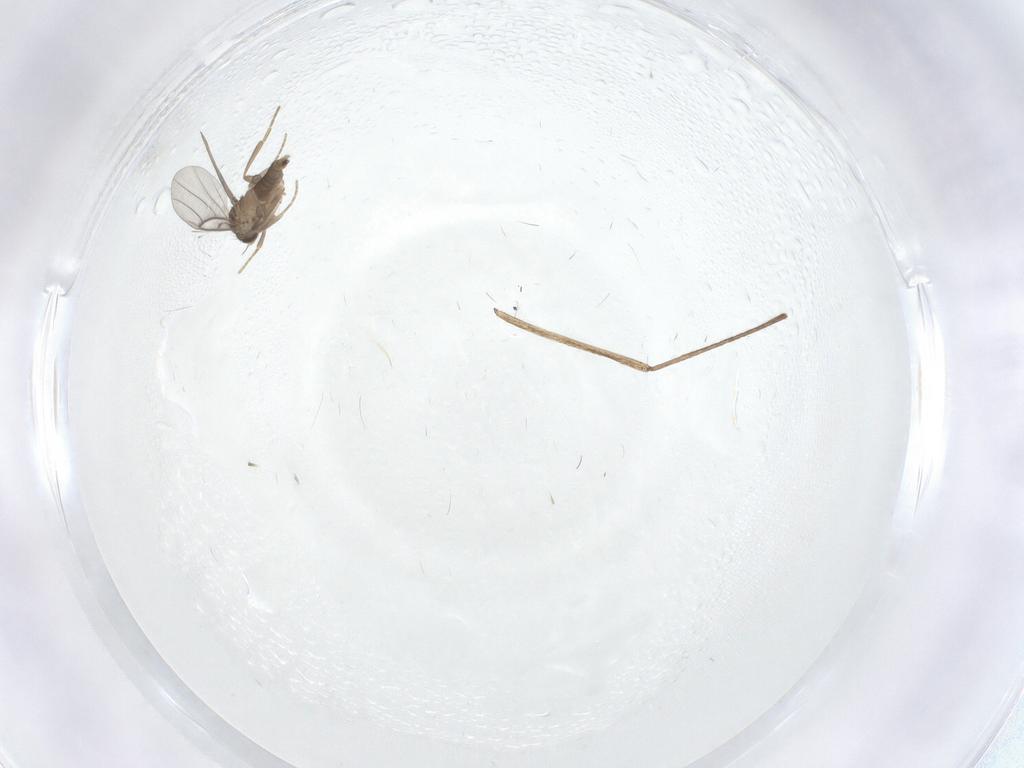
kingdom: Animalia
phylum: Arthropoda
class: Insecta
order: Diptera
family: Limoniidae
